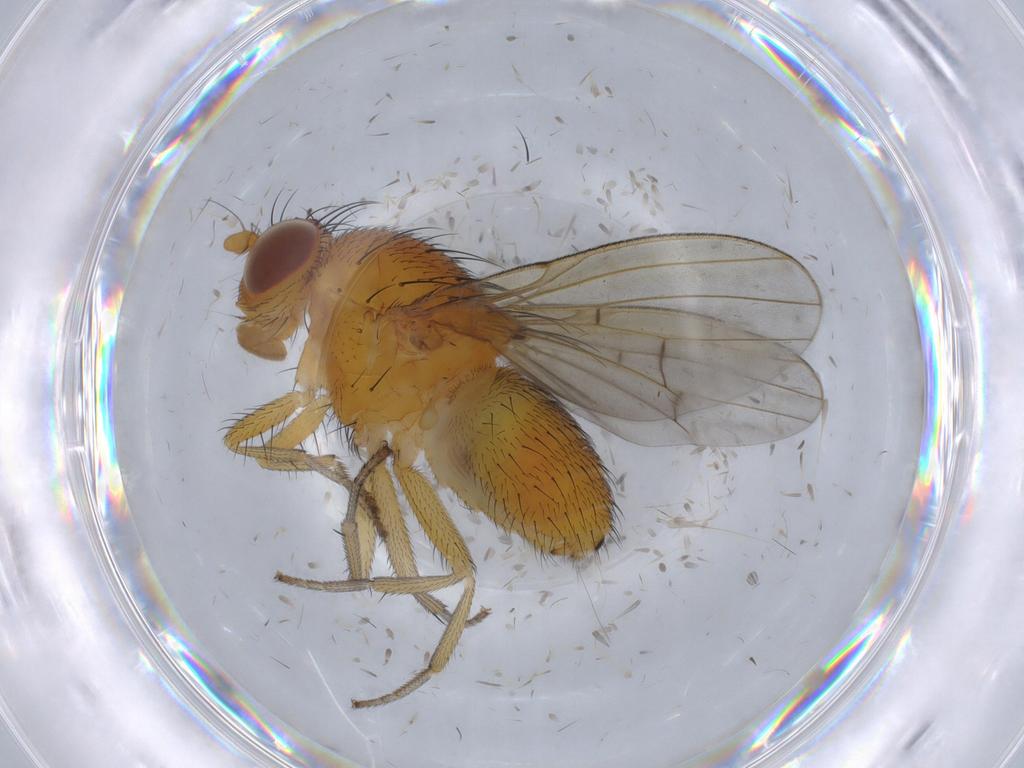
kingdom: Animalia
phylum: Arthropoda
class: Insecta
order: Diptera
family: Psychodidae
